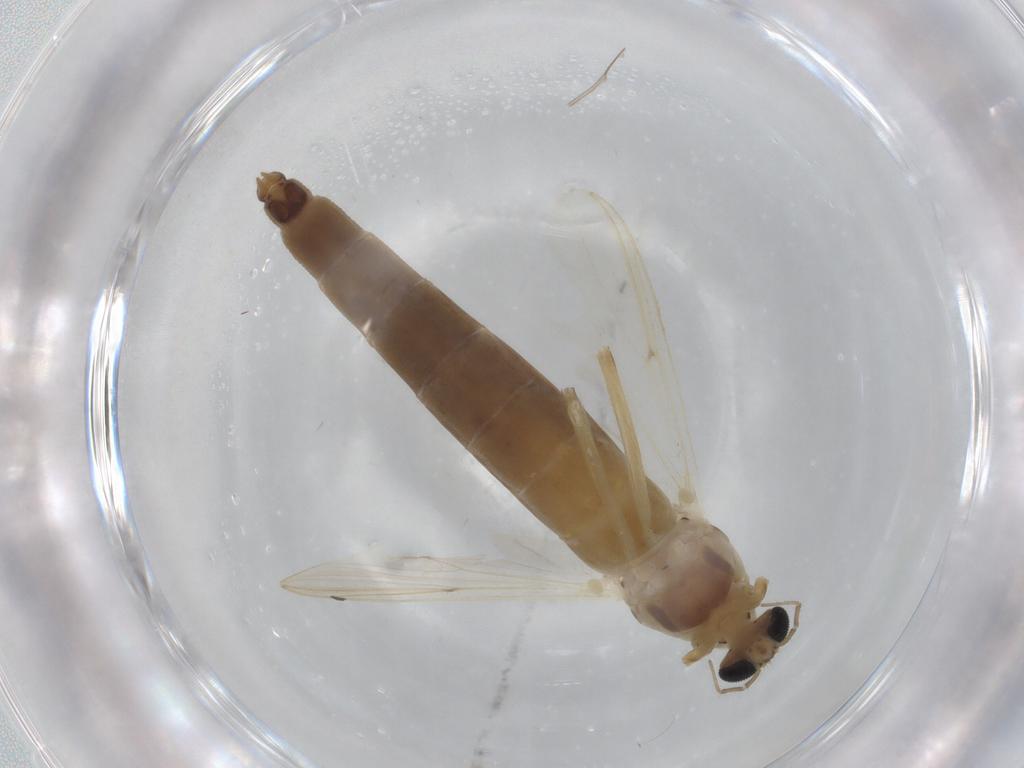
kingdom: Animalia
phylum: Arthropoda
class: Insecta
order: Diptera
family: Chironomidae
